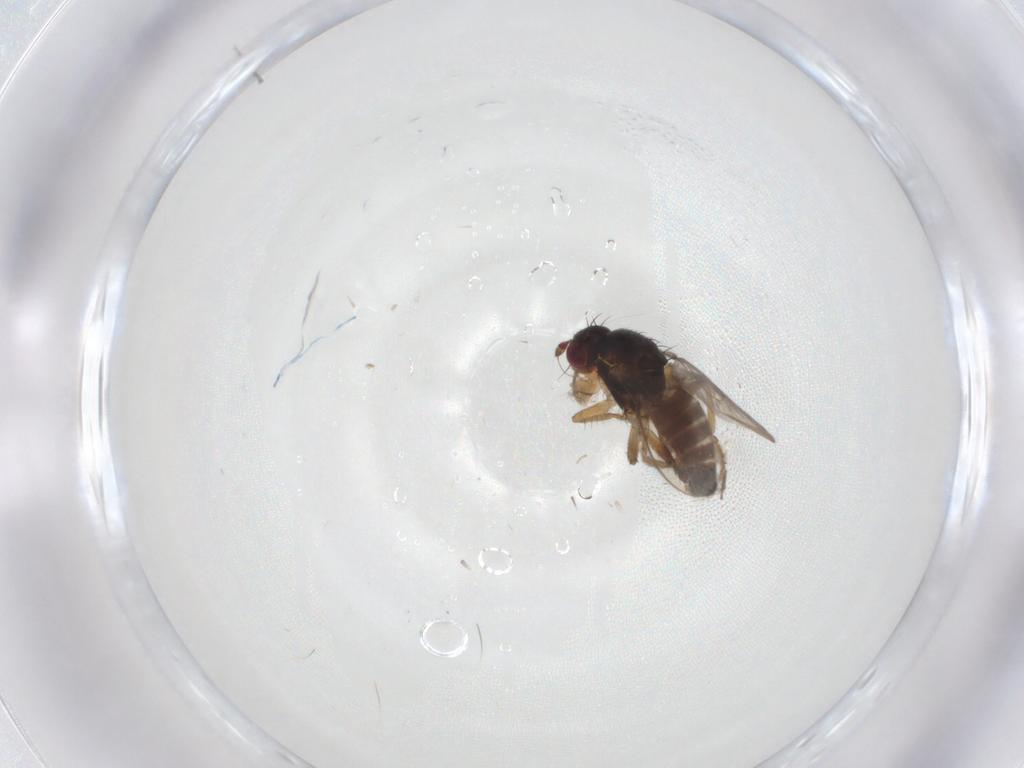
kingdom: Animalia
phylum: Arthropoda
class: Insecta
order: Diptera
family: Sphaeroceridae
